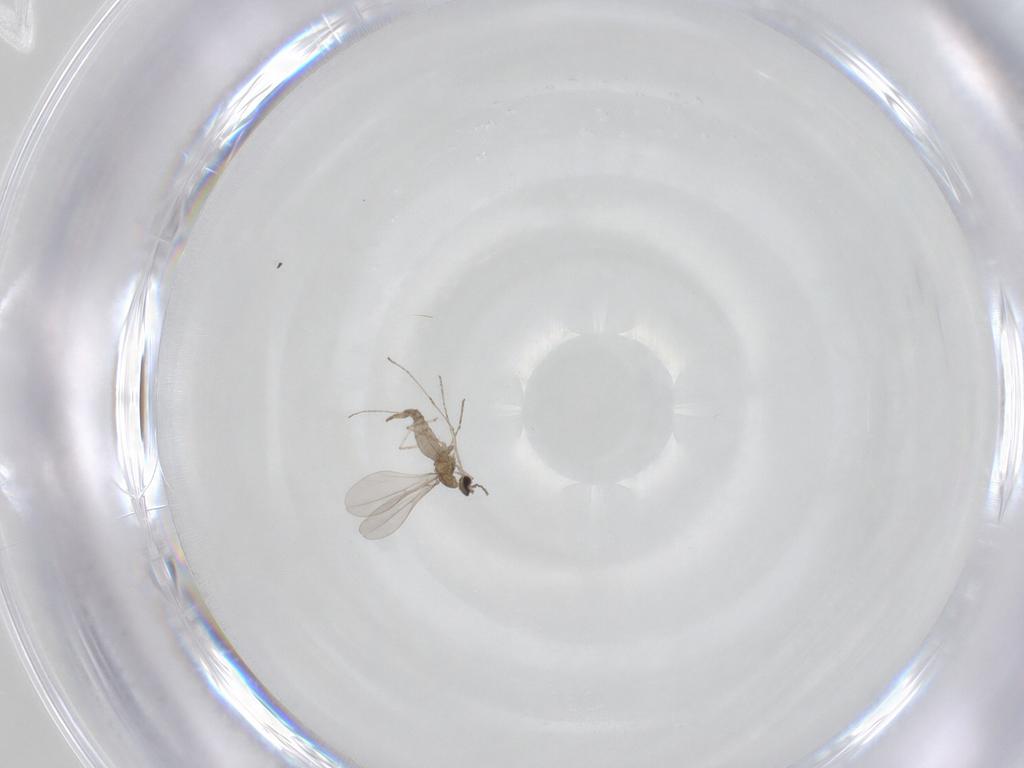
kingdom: Animalia
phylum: Arthropoda
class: Insecta
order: Diptera
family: Cecidomyiidae
